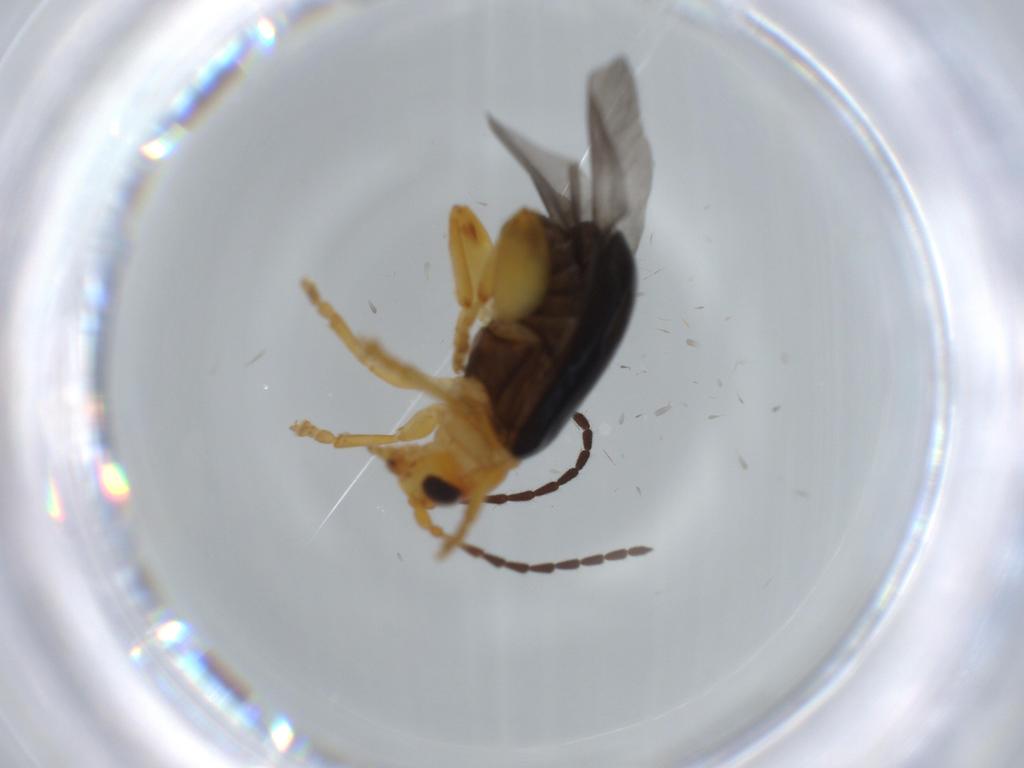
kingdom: Animalia
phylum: Arthropoda
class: Insecta
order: Coleoptera
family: Chrysomelidae
